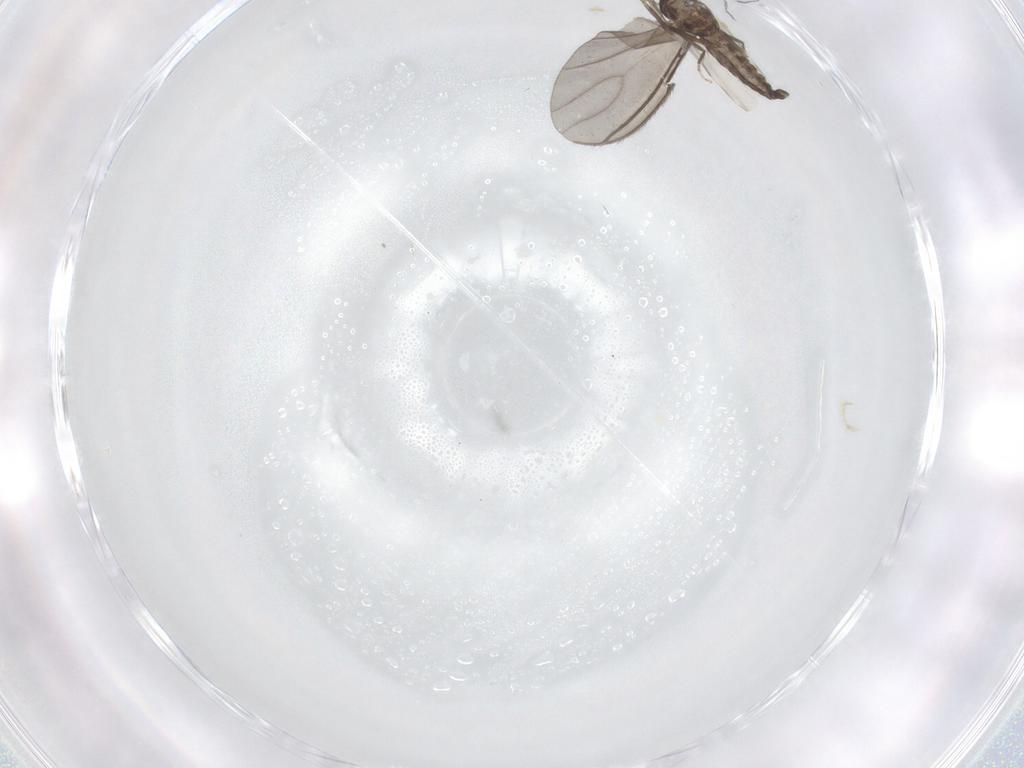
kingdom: Animalia
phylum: Arthropoda
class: Insecta
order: Diptera
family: Ceratopogonidae
